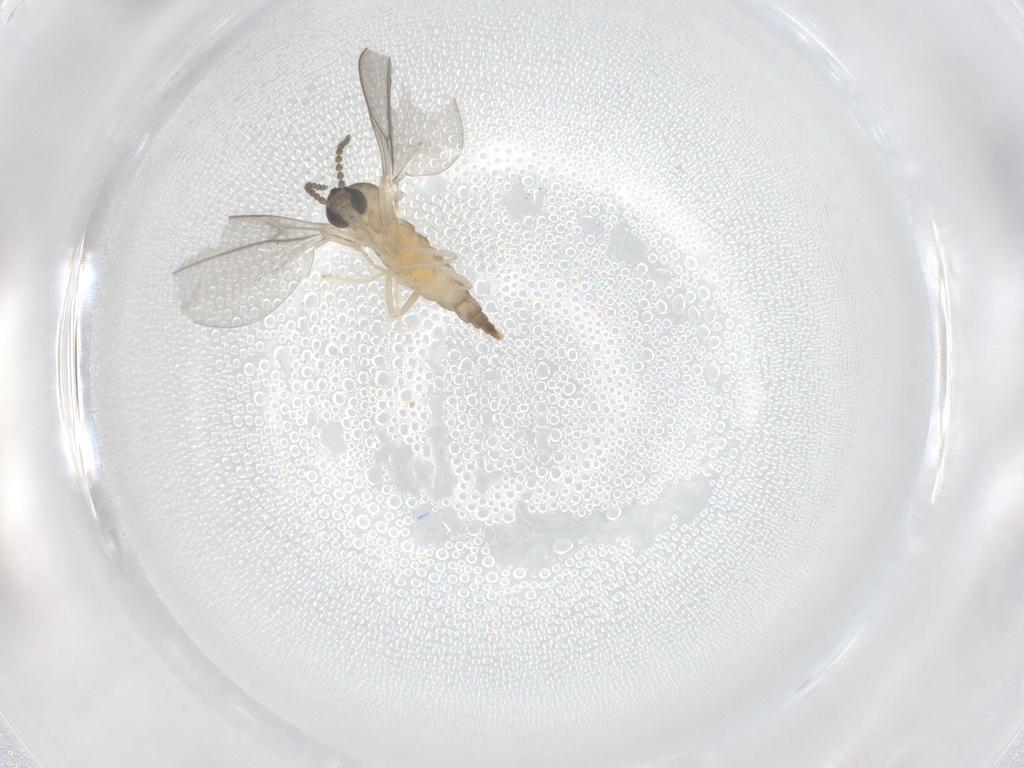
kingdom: Animalia
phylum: Arthropoda
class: Insecta
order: Diptera
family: Cecidomyiidae
